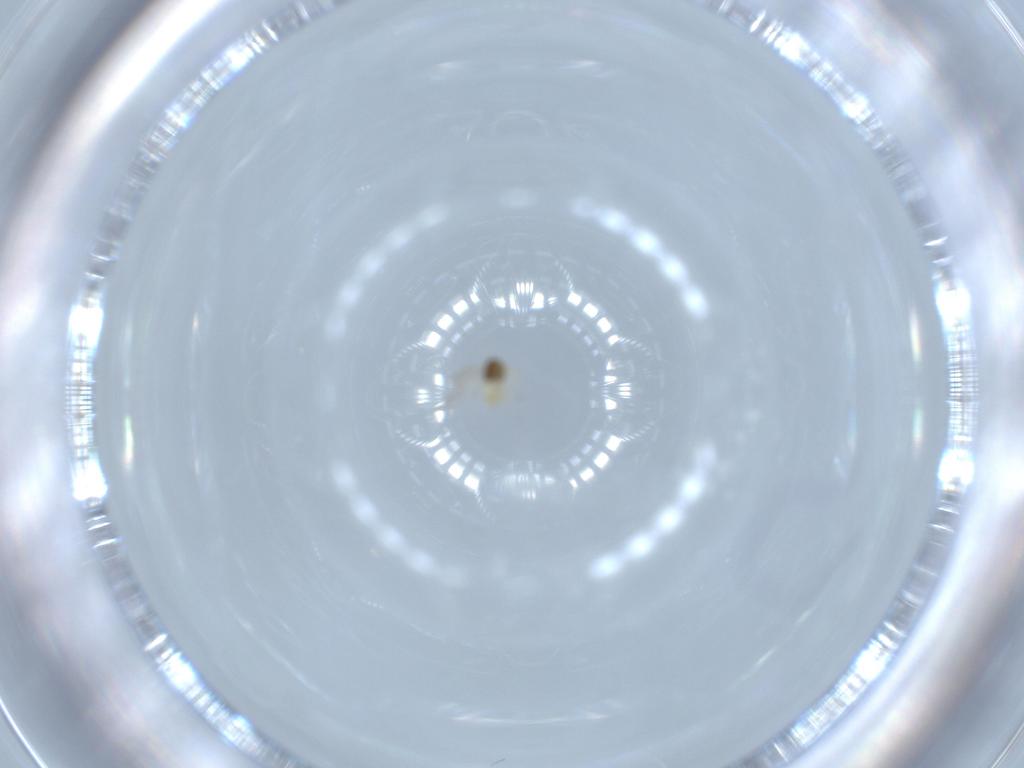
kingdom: Animalia
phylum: Arthropoda
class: Insecta
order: Hymenoptera
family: Aphelinidae
